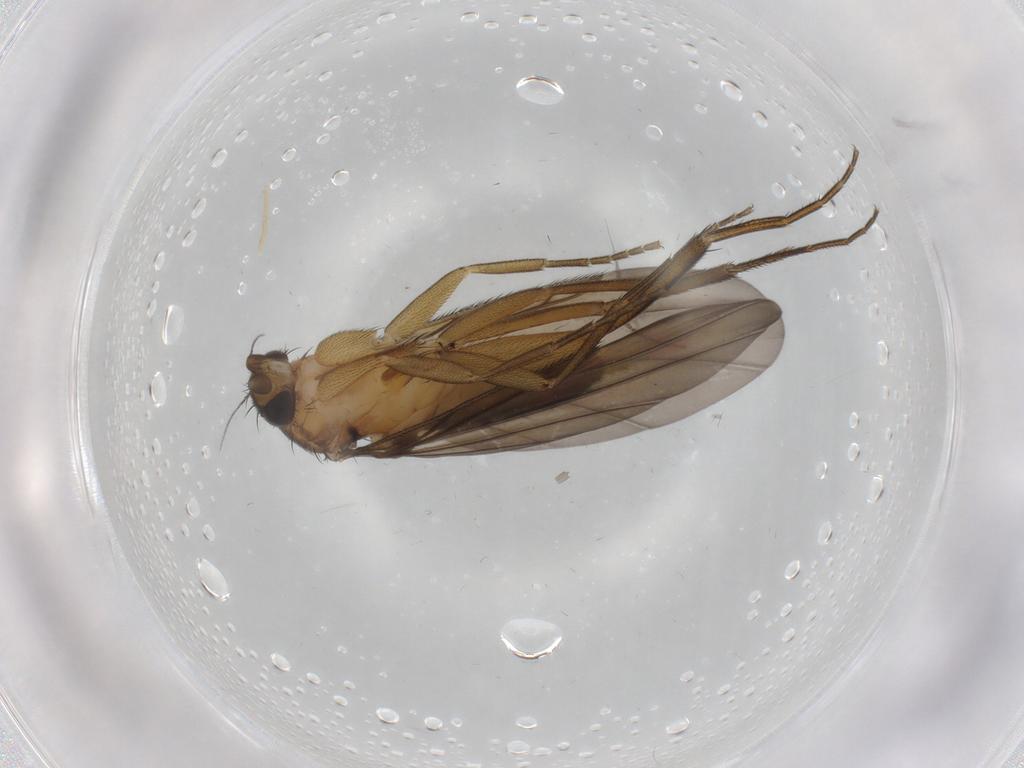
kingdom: Animalia
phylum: Arthropoda
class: Insecta
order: Diptera
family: Phoridae
